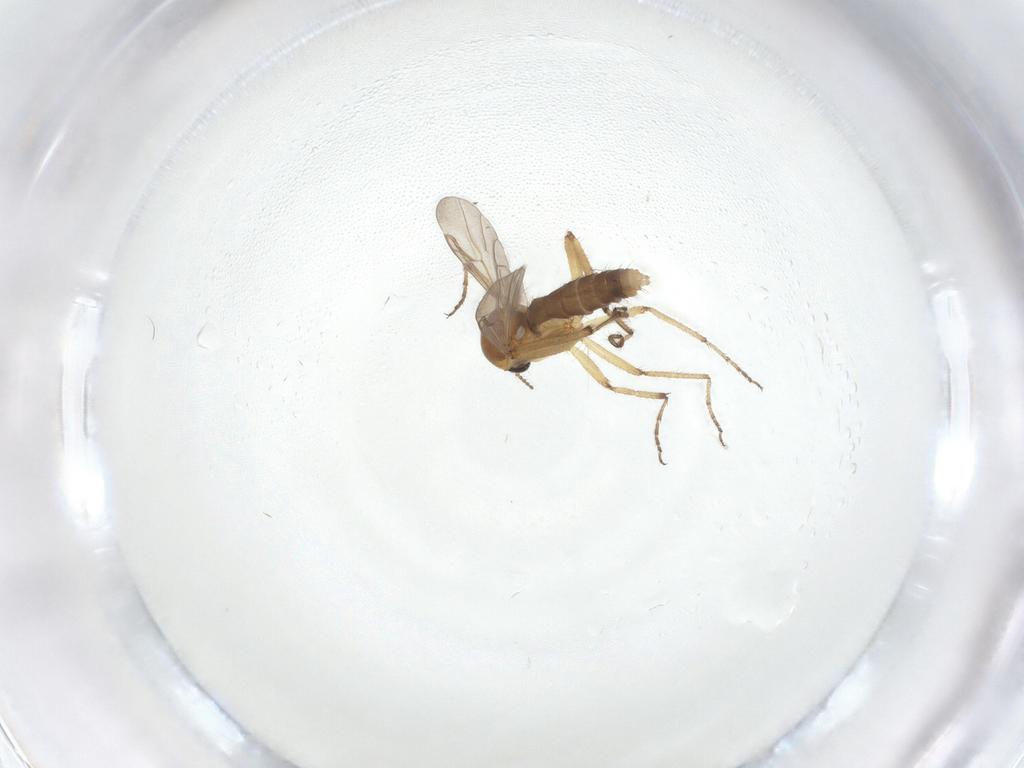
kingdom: Animalia
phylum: Arthropoda
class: Insecta
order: Diptera
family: Ceratopogonidae
